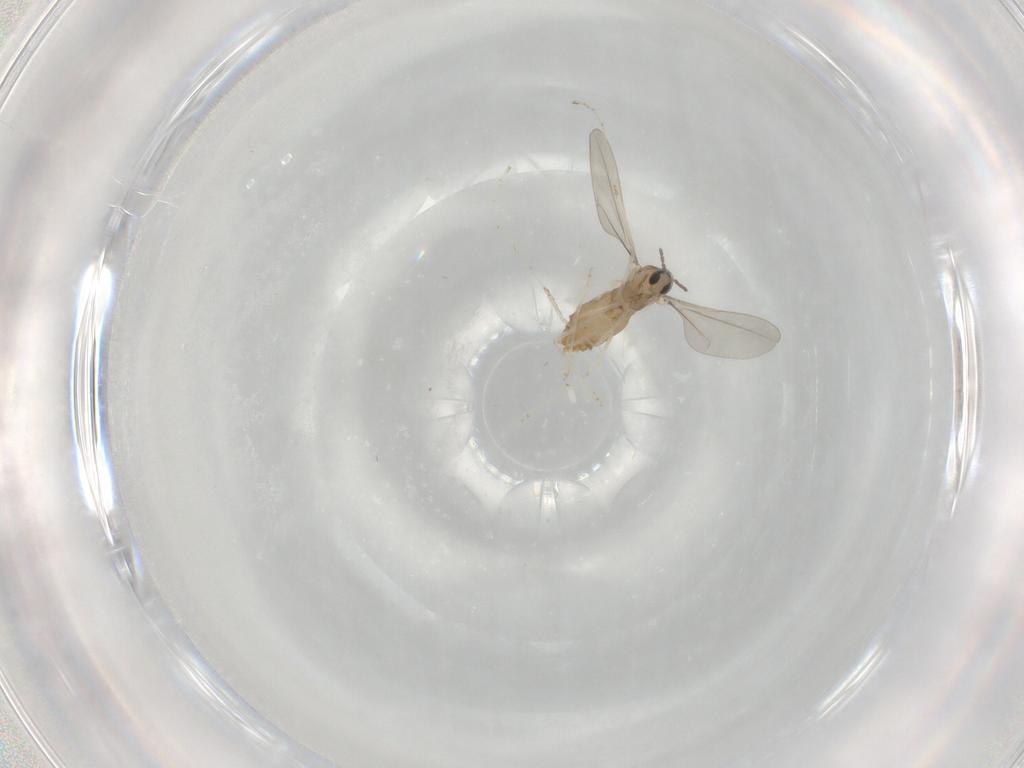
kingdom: Animalia
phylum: Arthropoda
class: Insecta
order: Diptera
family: Cecidomyiidae
